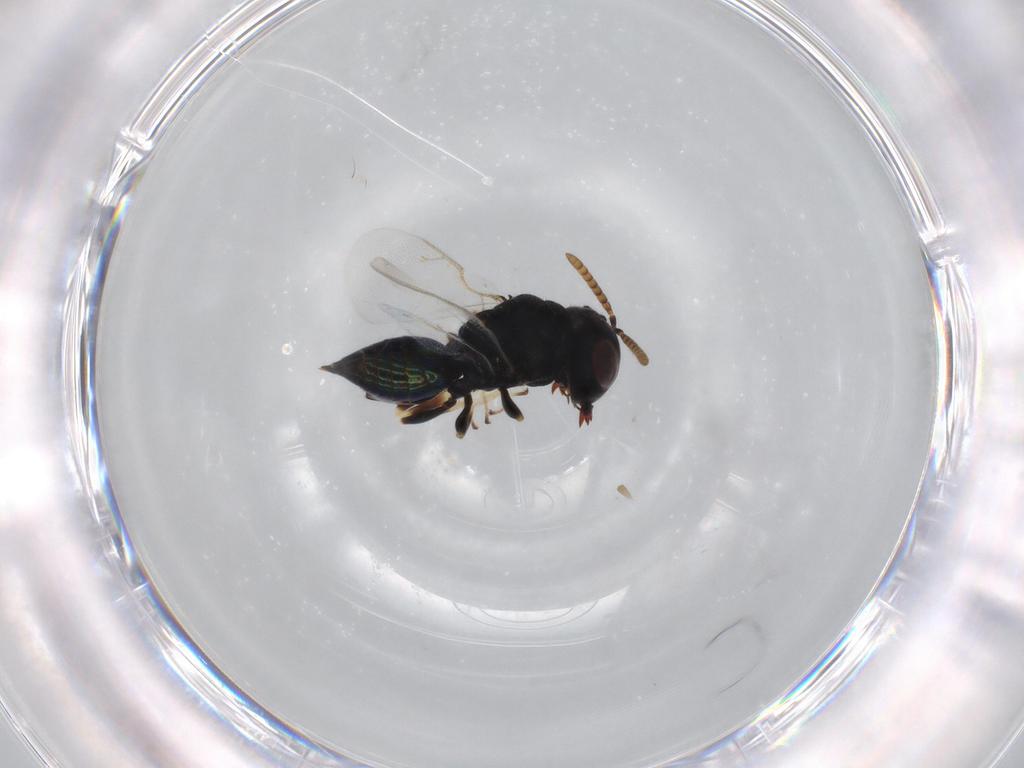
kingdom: Animalia
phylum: Arthropoda
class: Insecta
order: Hymenoptera
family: Pteromalidae
